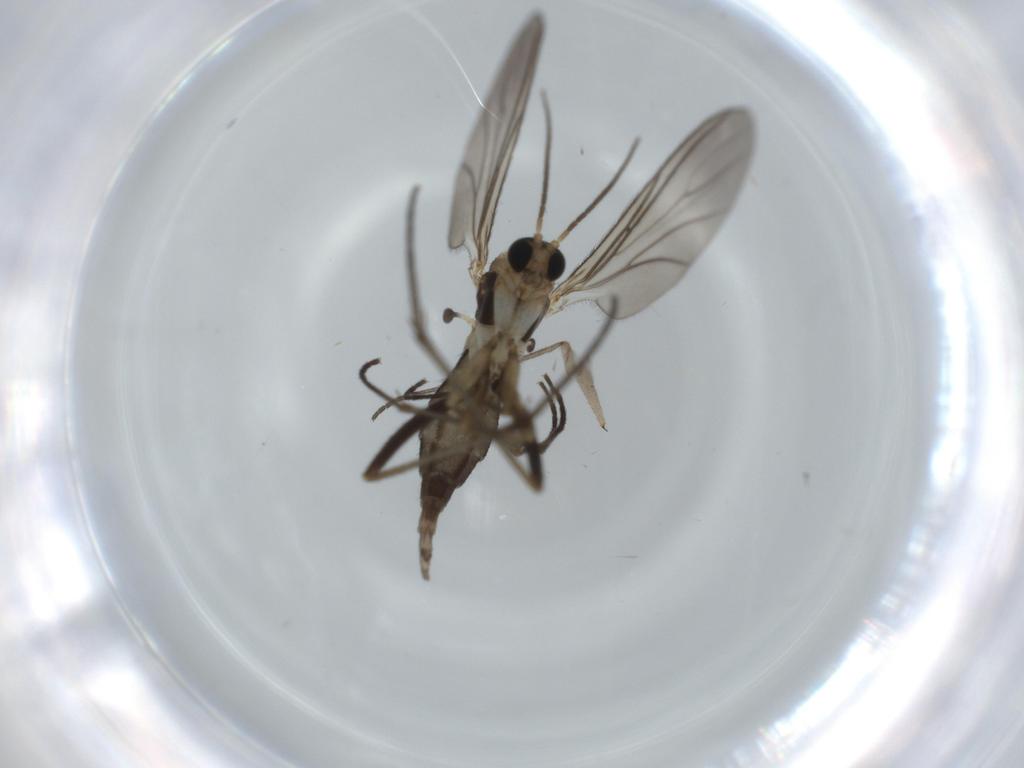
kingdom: Animalia
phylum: Arthropoda
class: Insecta
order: Diptera
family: Sciaridae
